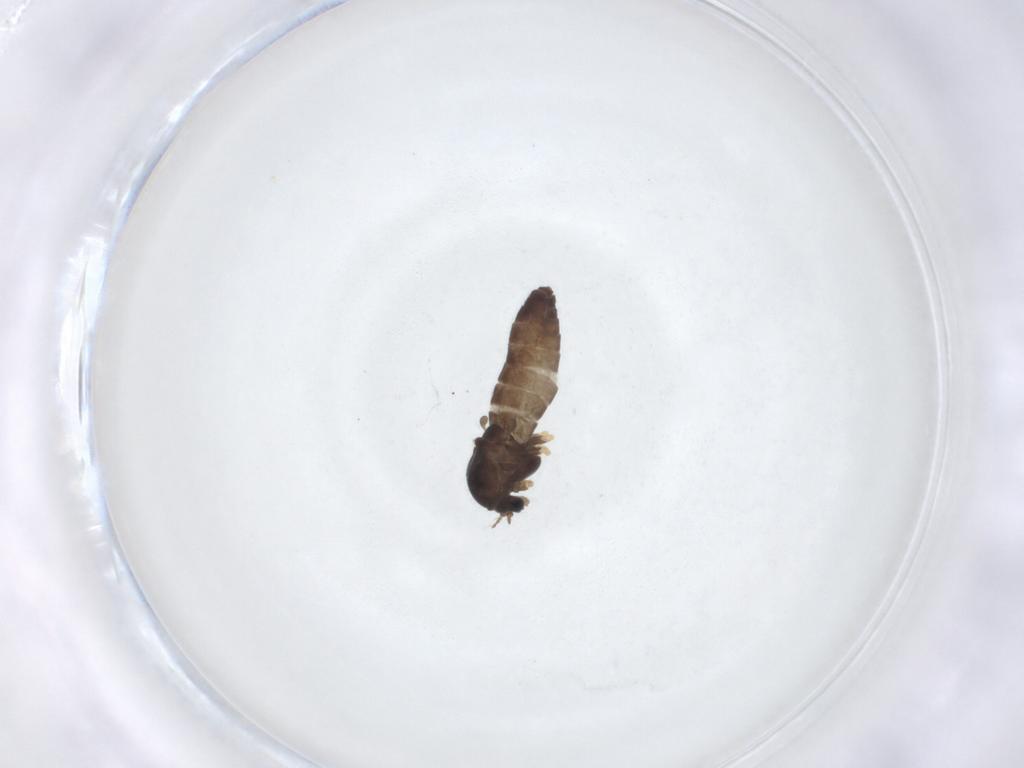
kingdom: Animalia
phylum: Arthropoda
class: Insecta
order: Diptera
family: Chironomidae
